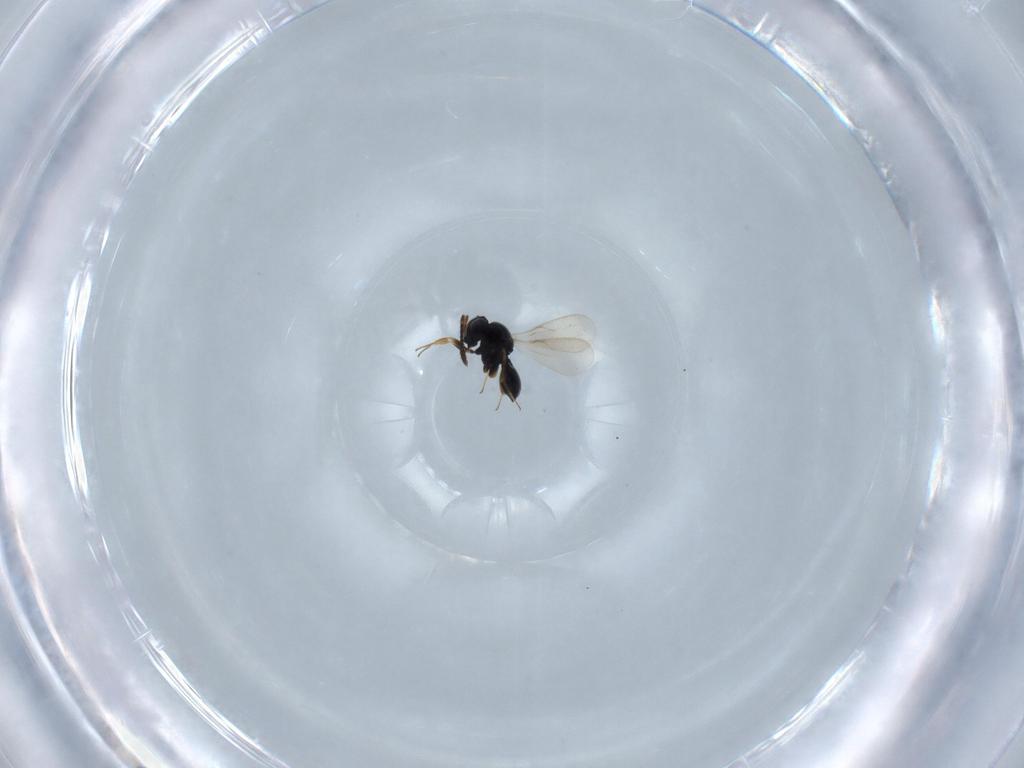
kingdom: Animalia
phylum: Arthropoda
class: Insecta
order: Hymenoptera
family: Scelionidae
